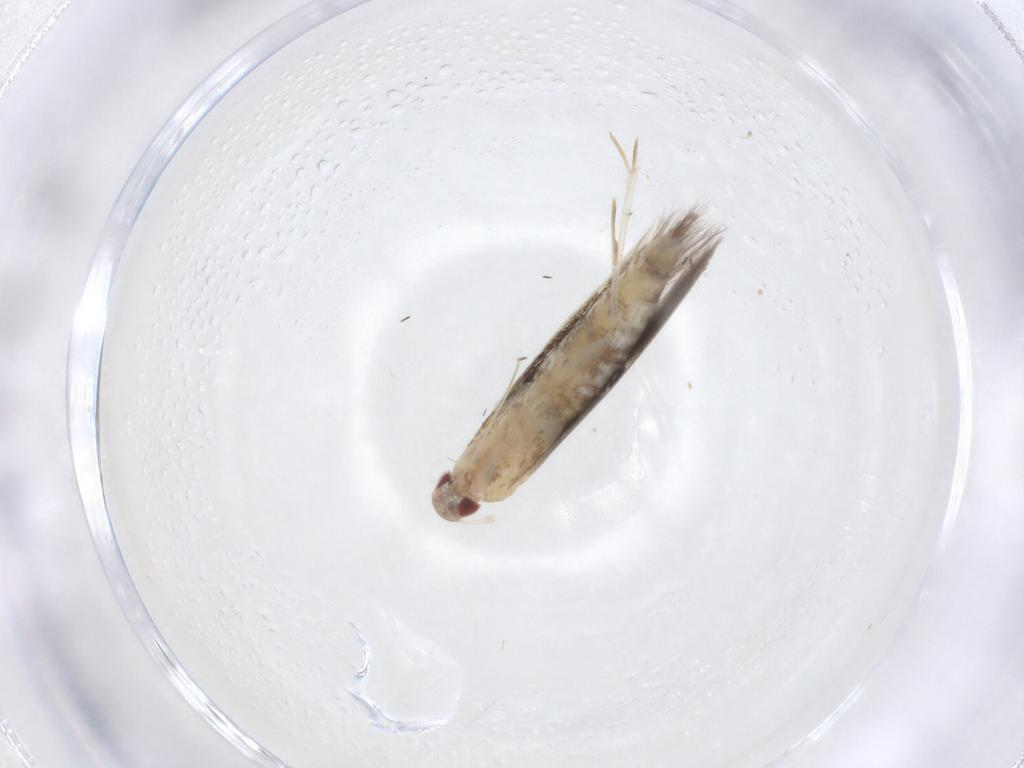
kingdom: Animalia
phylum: Arthropoda
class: Insecta
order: Lepidoptera
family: Cosmopterigidae
